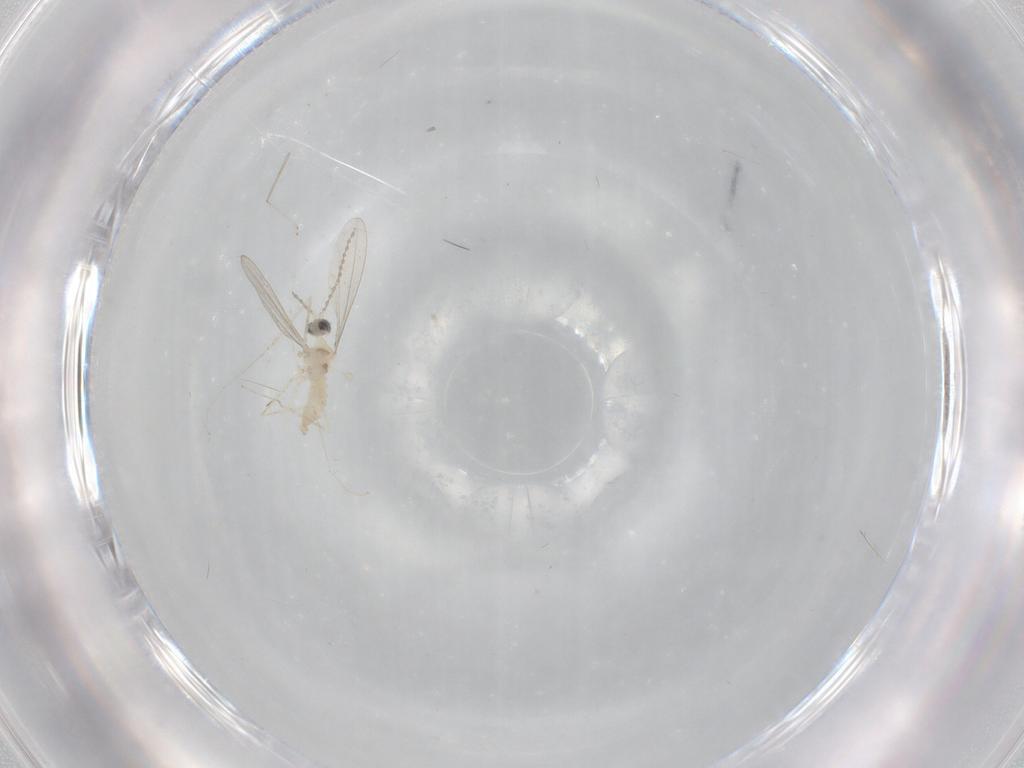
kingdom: Animalia
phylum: Arthropoda
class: Insecta
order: Diptera
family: Cecidomyiidae
